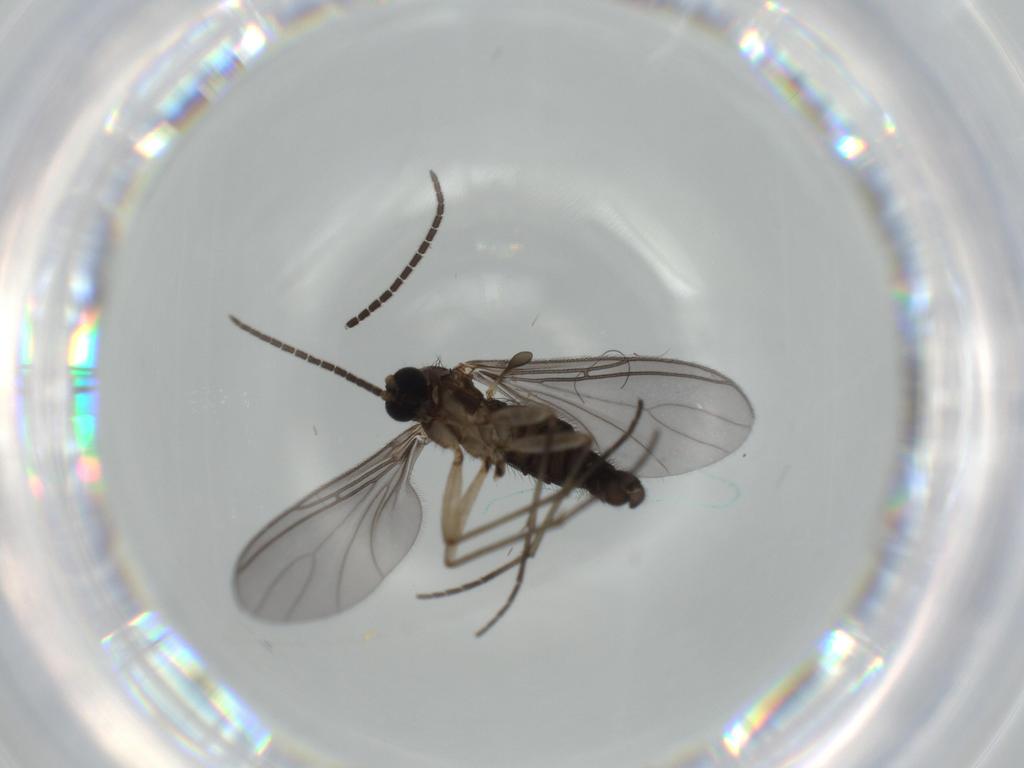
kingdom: Animalia
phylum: Arthropoda
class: Insecta
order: Diptera
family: Sciaridae
